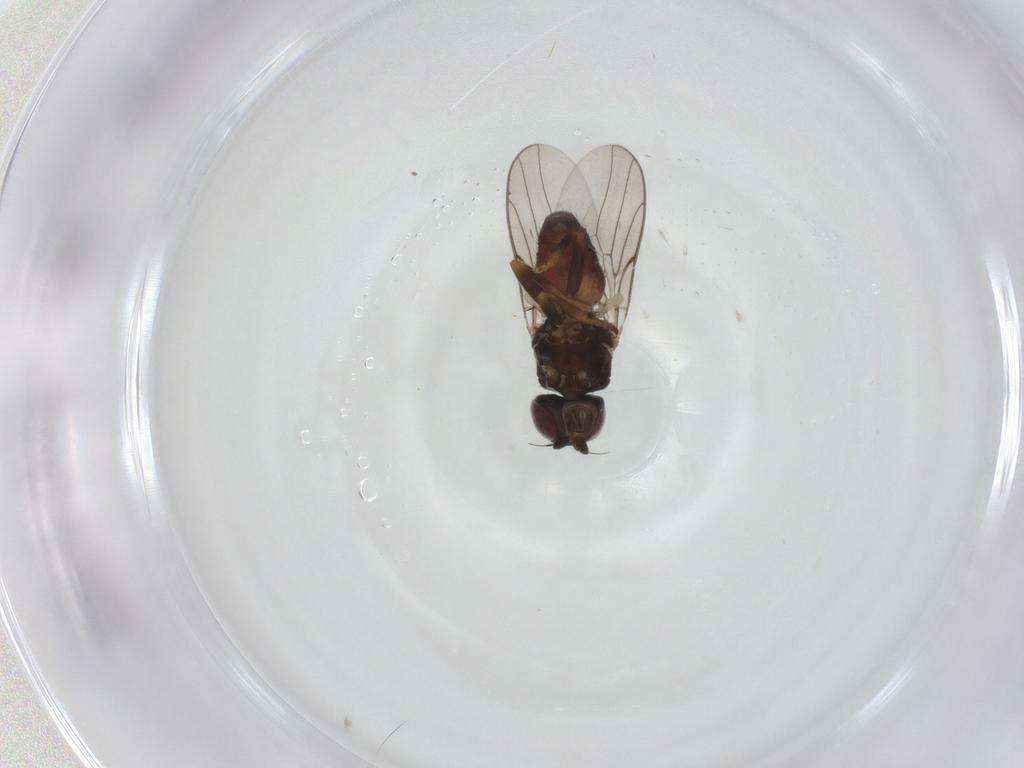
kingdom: Animalia
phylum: Arthropoda
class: Insecta
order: Diptera
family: Chloropidae
